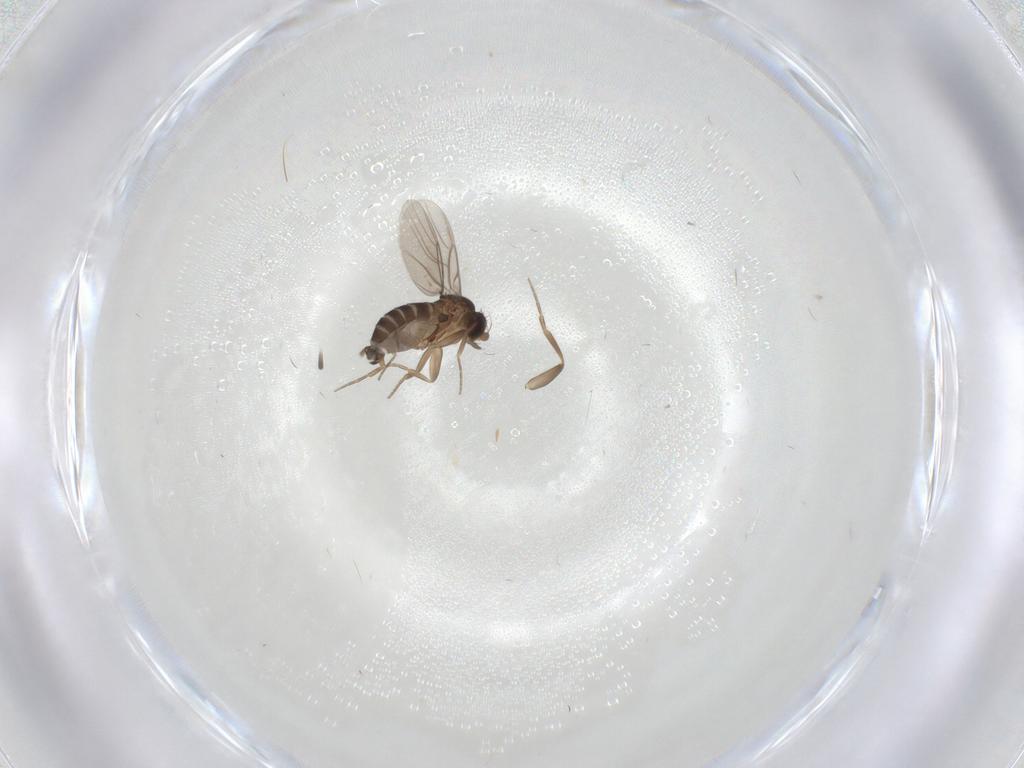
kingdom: Animalia
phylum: Arthropoda
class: Insecta
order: Diptera
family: Phoridae
